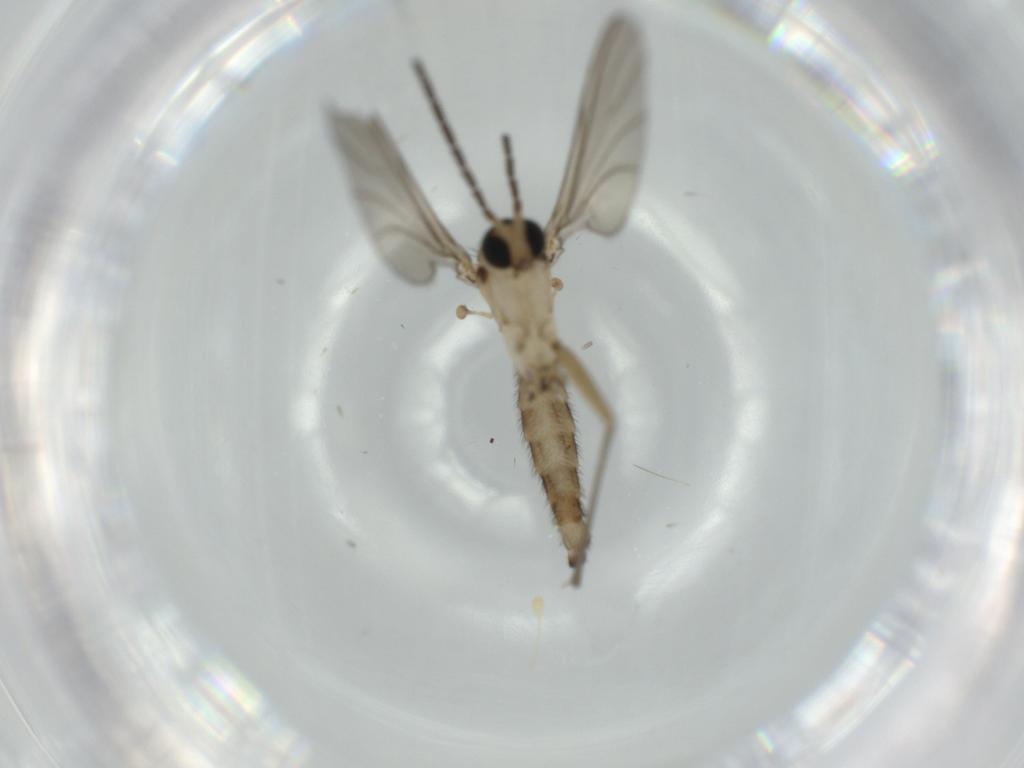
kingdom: Animalia
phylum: Arthropoda
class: Insecta
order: Diptera
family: Sciaridae
